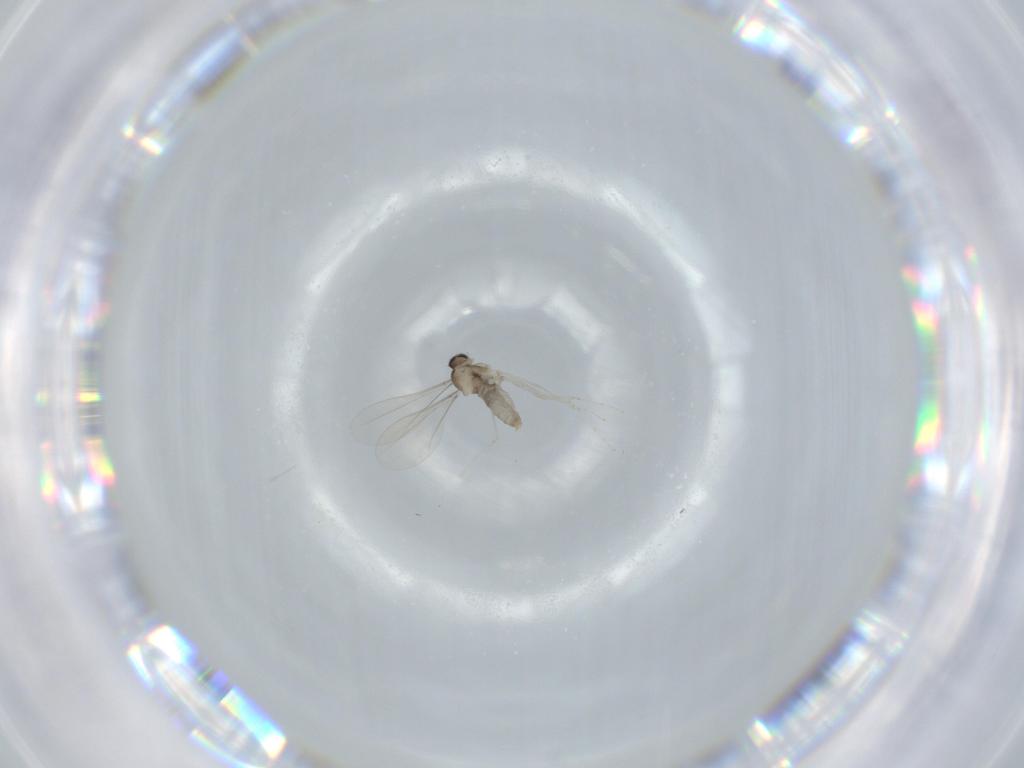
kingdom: Animalia
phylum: Arthropoda
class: Insecta
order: Diptera
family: Cecidomyiidae
